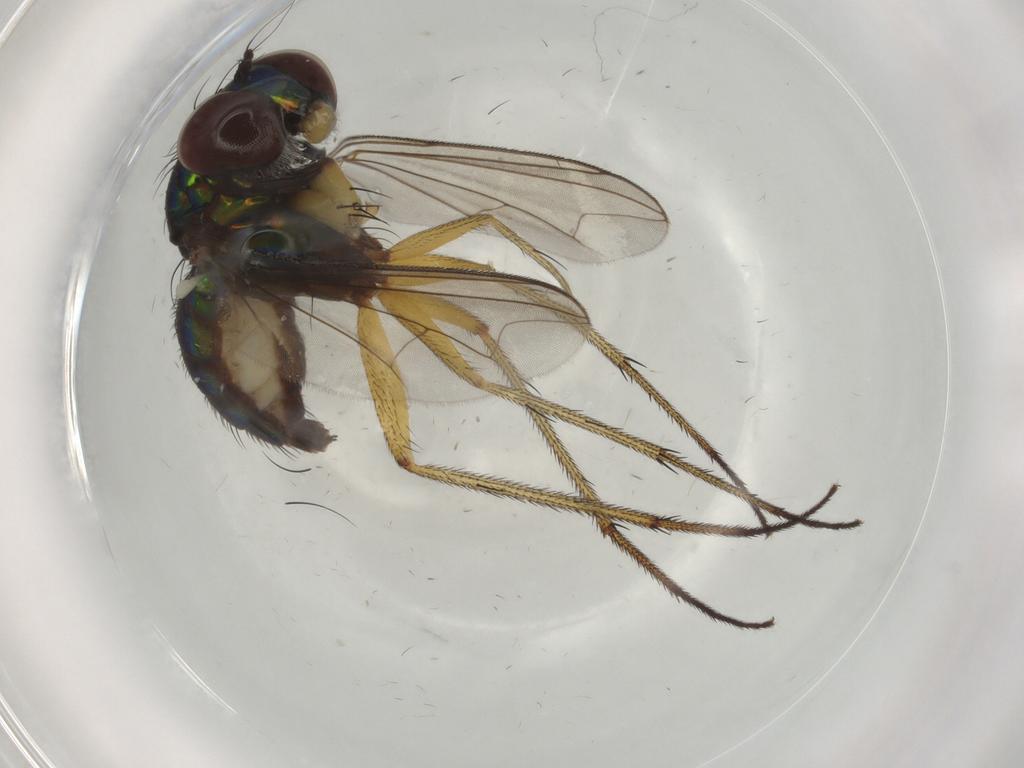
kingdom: Animalia
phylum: Arthropoda
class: Insecta
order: Diptera
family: Dolichopodidae
